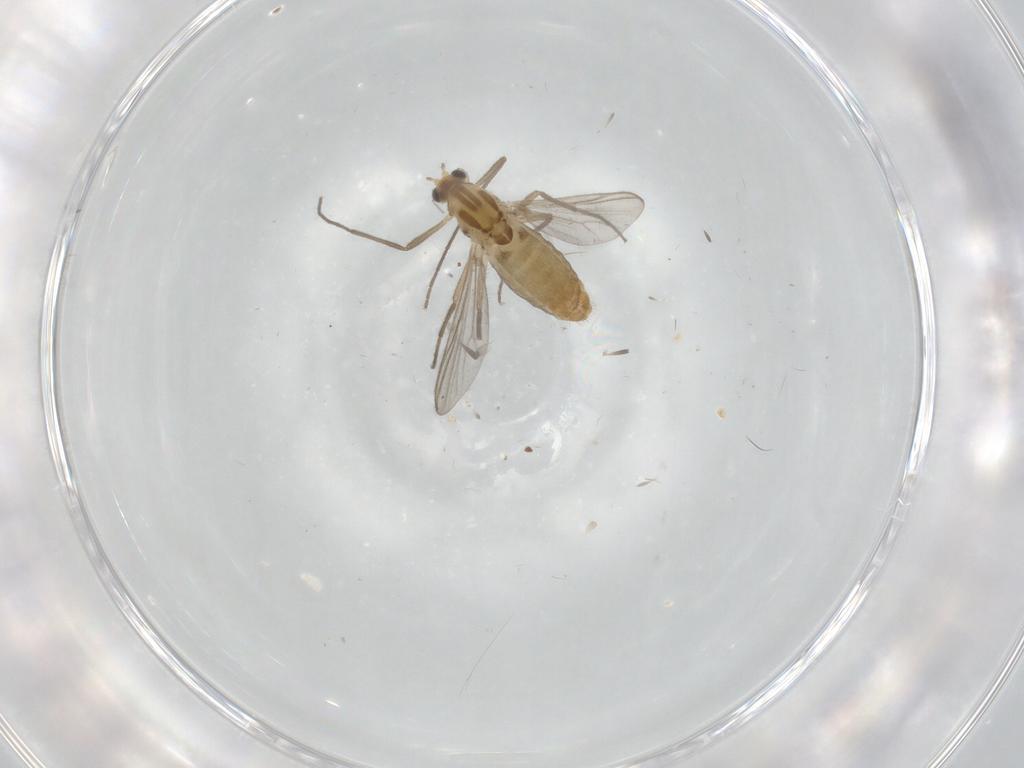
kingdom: Animalia
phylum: Arthropoda
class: Insecta
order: Diptera
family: Chironomidae
